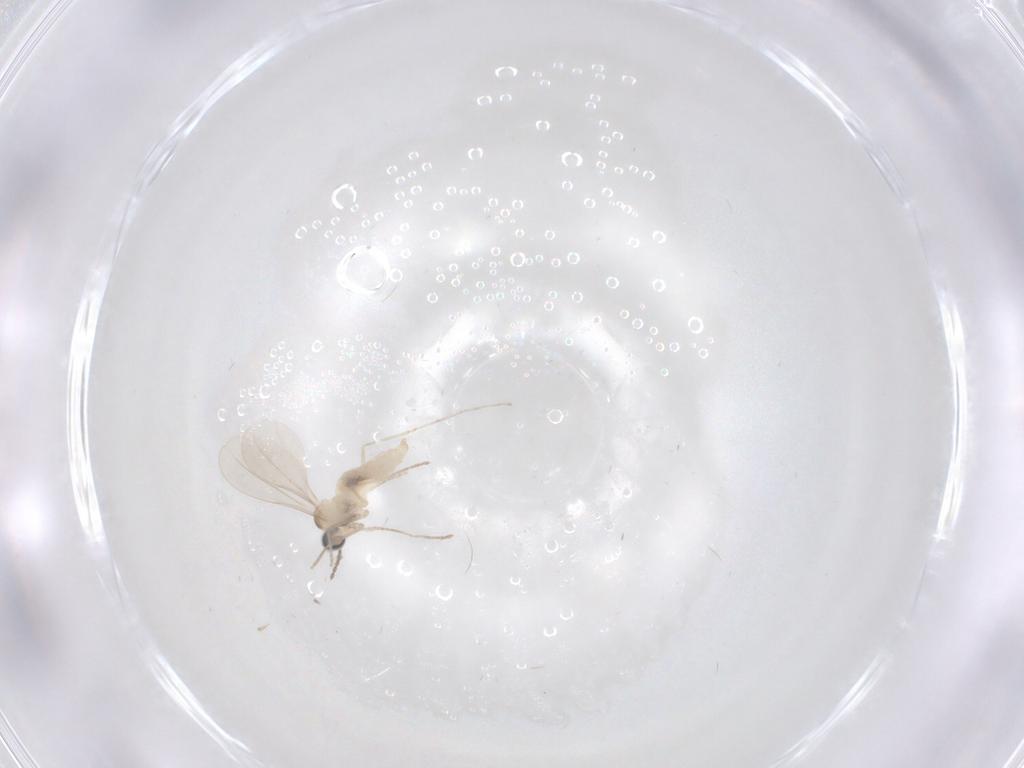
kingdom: Animalia
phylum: Arthropoda
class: Insecta
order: Diptera
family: Hybotidae
